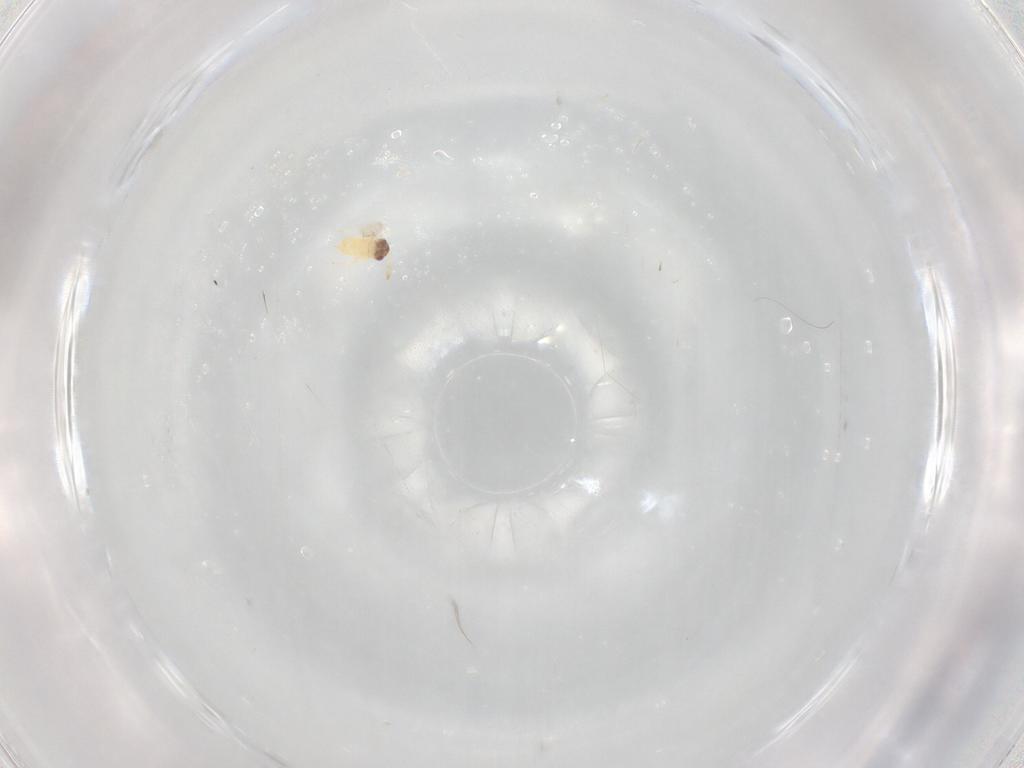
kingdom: Animalia
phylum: Arthropoda
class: Insecta
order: Hymenoptera
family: Aphelinidae
